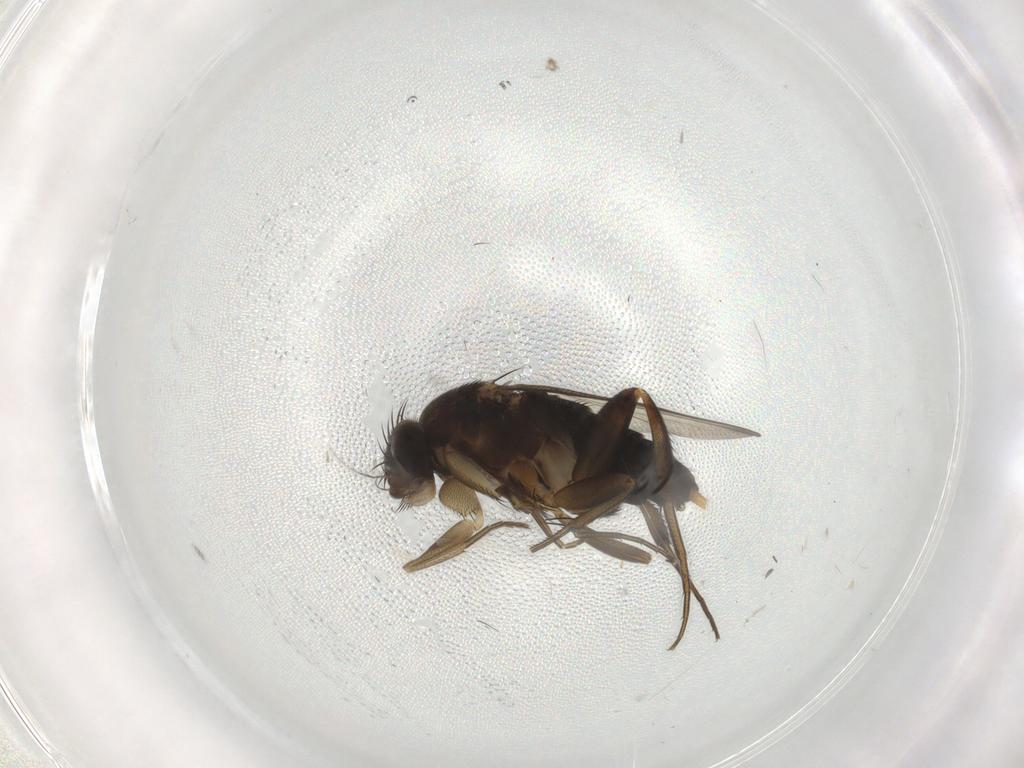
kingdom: Animalia
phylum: Arthropoda
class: Insecta
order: Diptera
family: Phoridae
